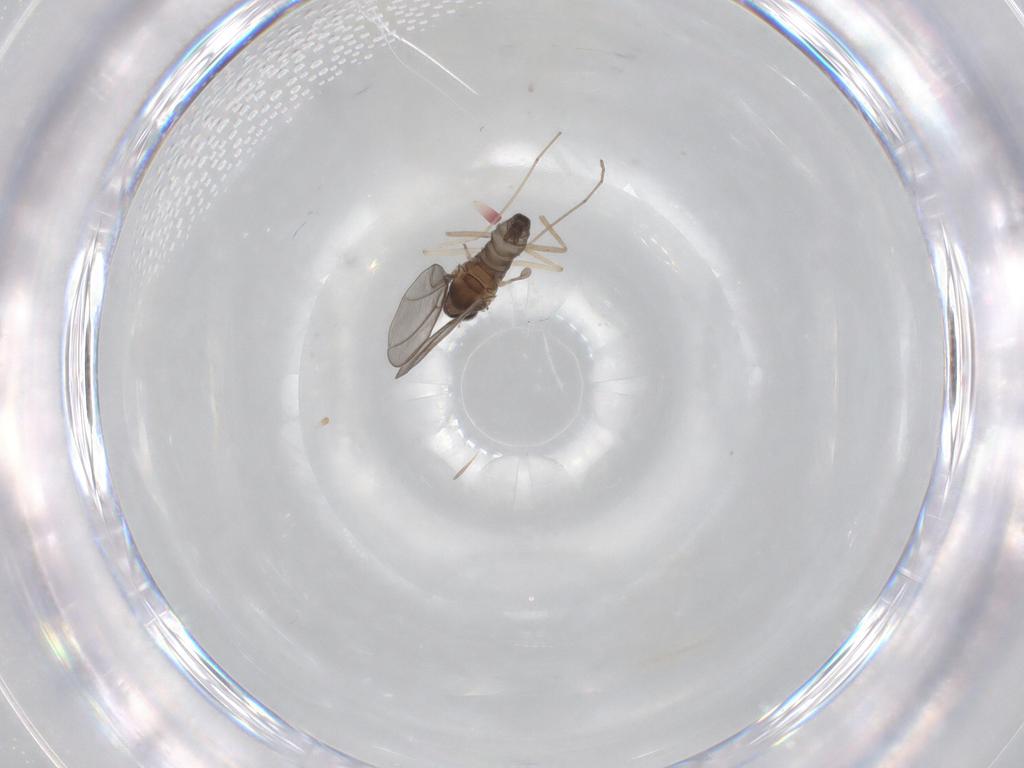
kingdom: Animalia
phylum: Arthropoda
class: Insecta
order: Diptera
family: Cecidomyiidae
